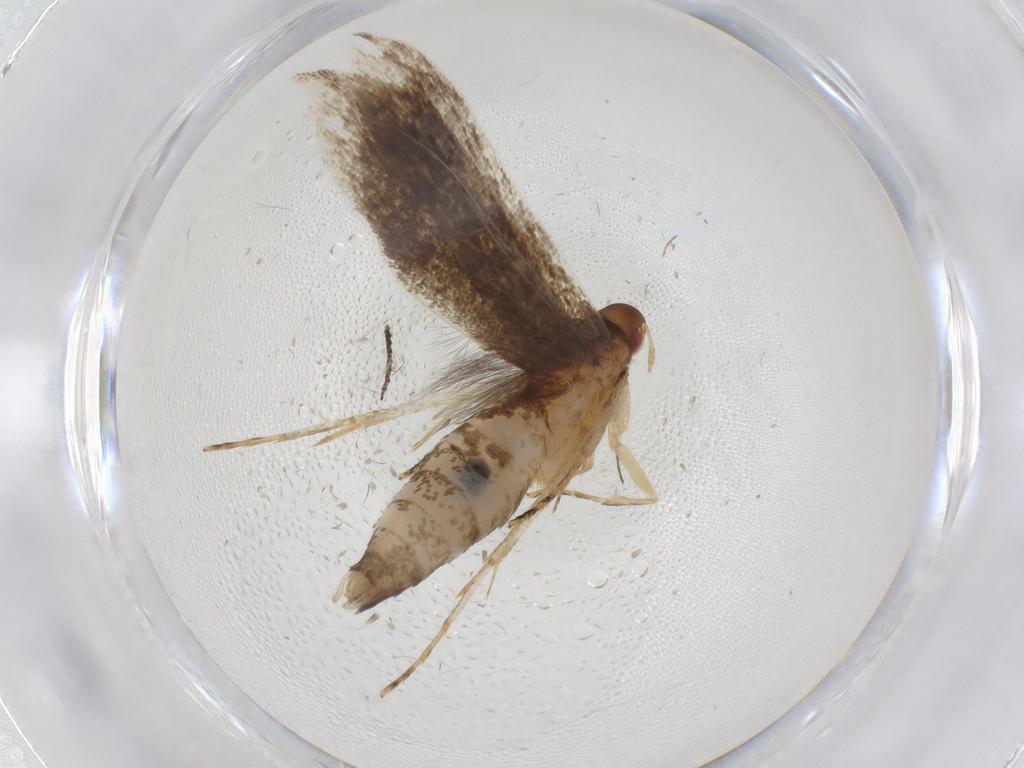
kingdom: Animalia
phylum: Arthropoda
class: Insecta
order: Lepidoptera
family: Gelechiidae
